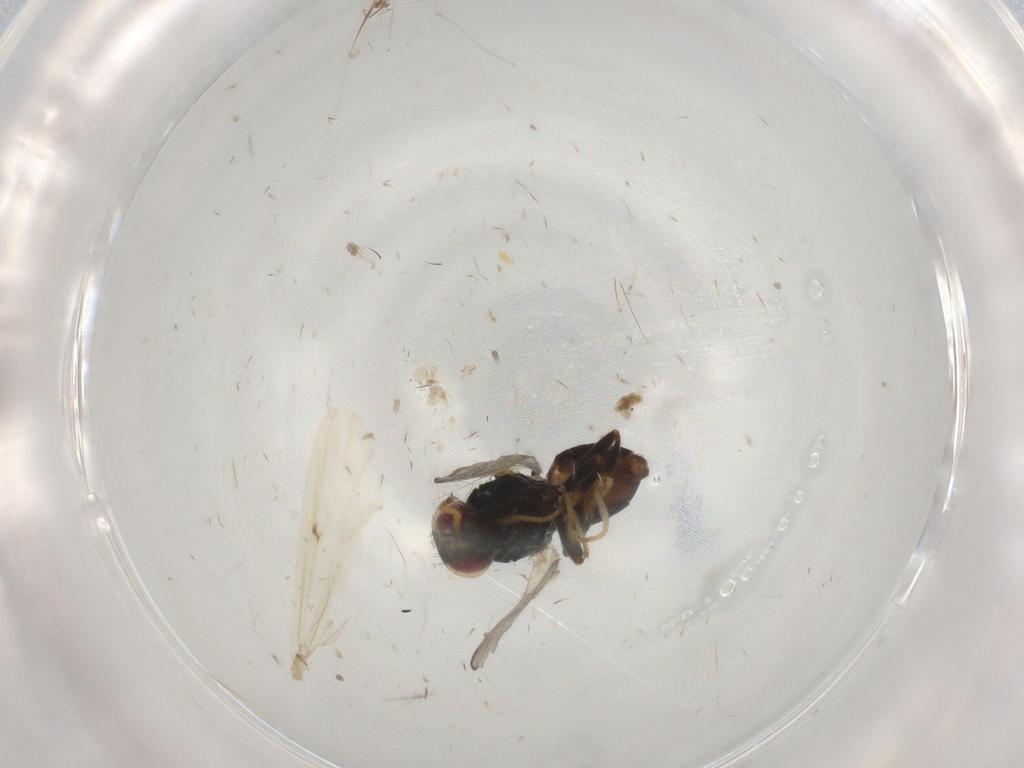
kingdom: Animalia
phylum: Arthropoda
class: Insecta
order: Diptera
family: Chloropidae
